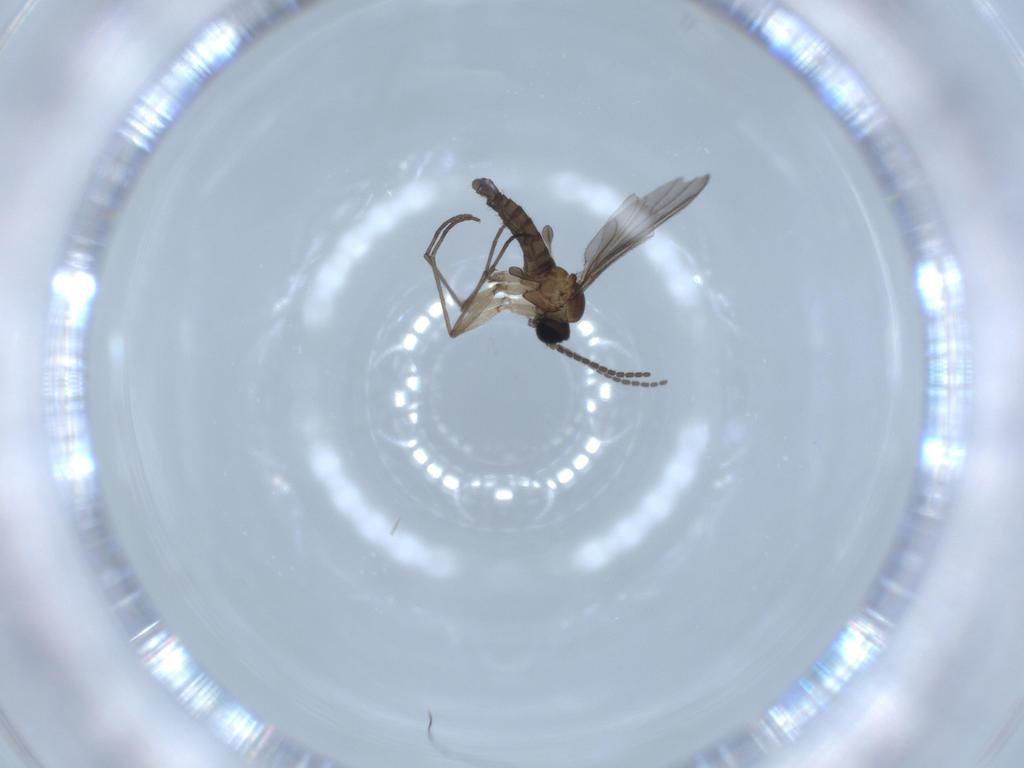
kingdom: Animalia
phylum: Arthropoda
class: Insecta
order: Diptera
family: Sciaridae
